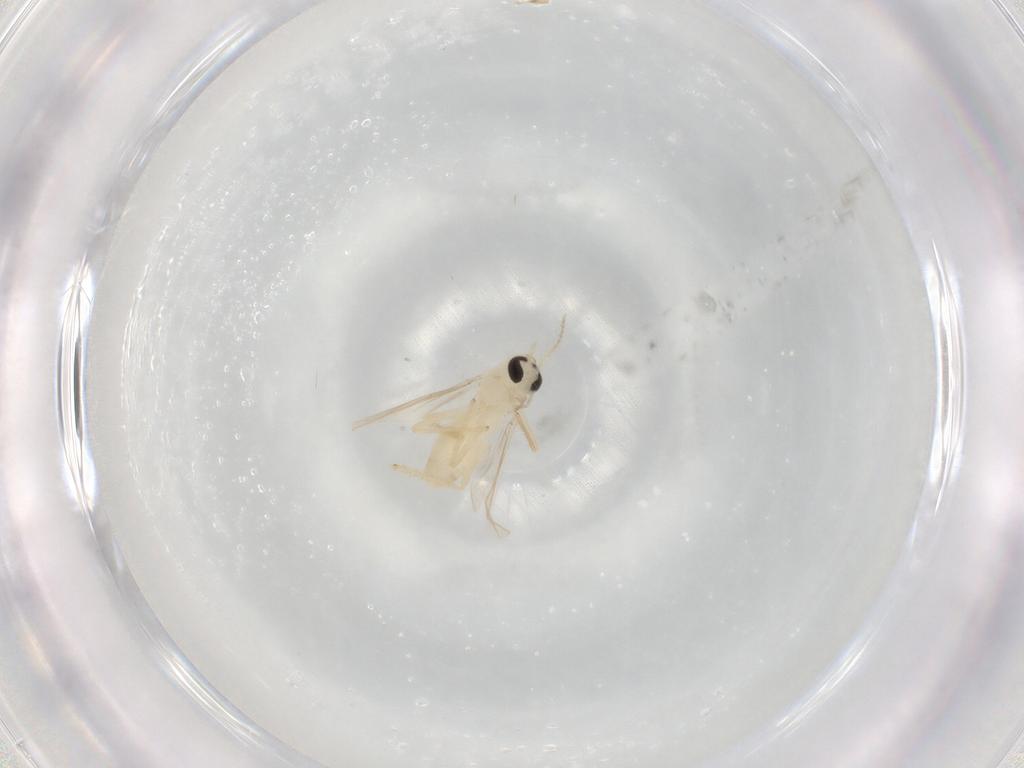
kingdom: Animalia
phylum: Arthropoda
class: Insecta
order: Diptera
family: Chironomidae
